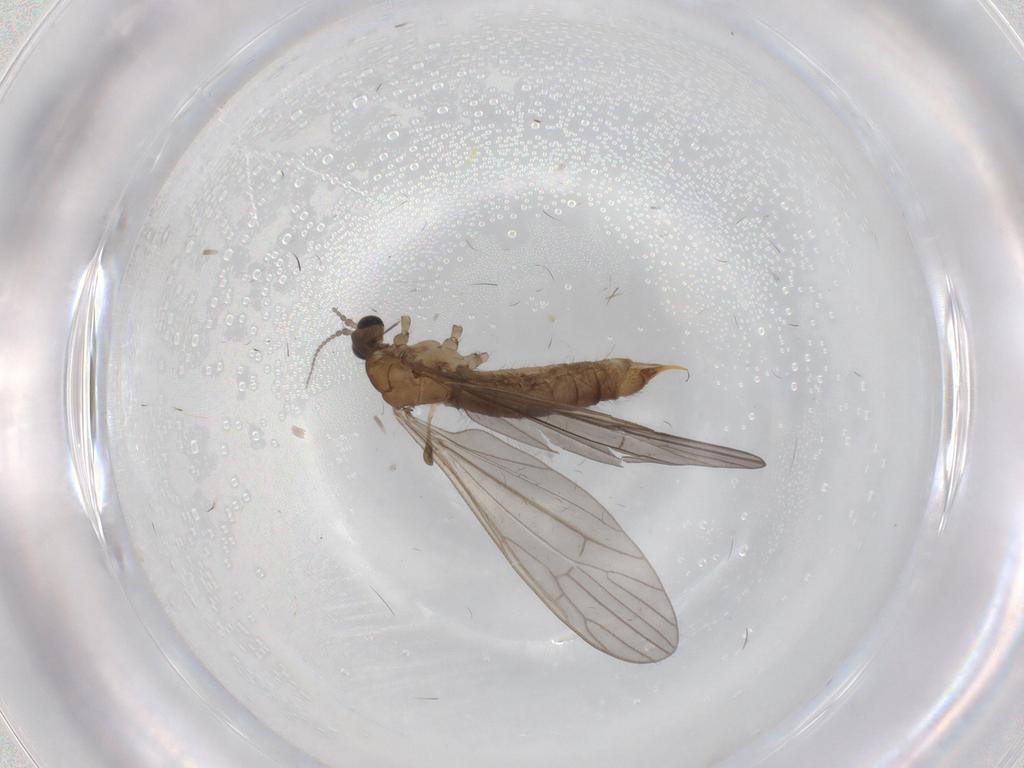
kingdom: Animalia
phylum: Arthropoda
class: Insecta
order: Diptera
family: Limoniidae
